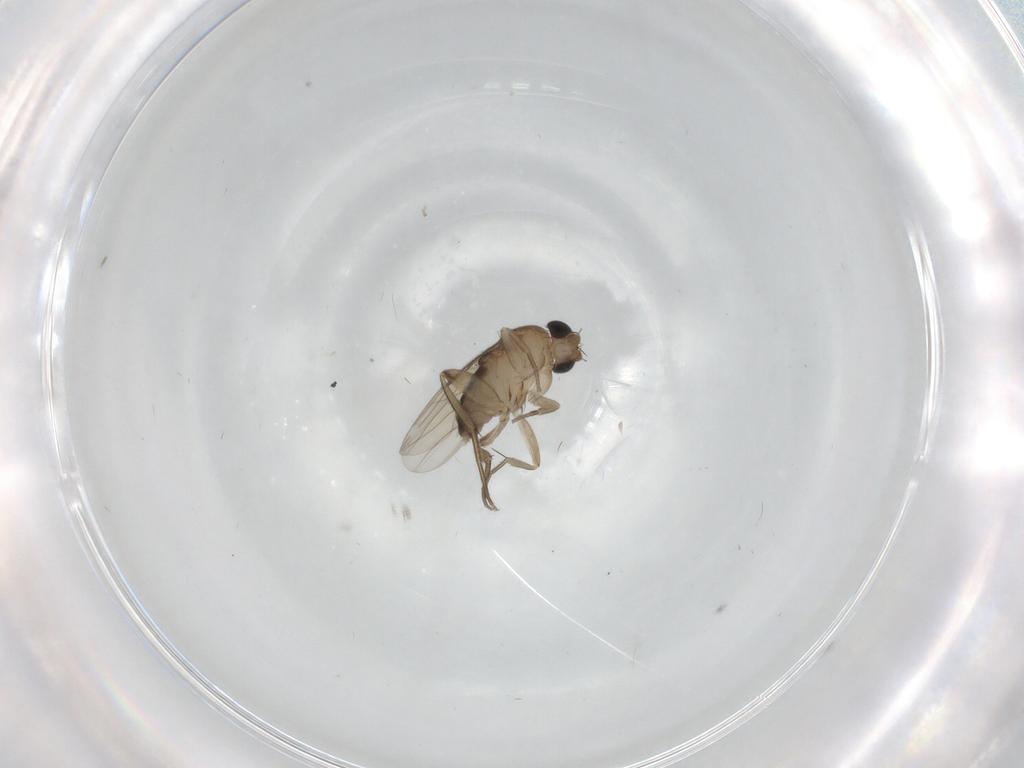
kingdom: Animalia
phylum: Arthropoda
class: Insecta
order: Diptera
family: Phoridae
